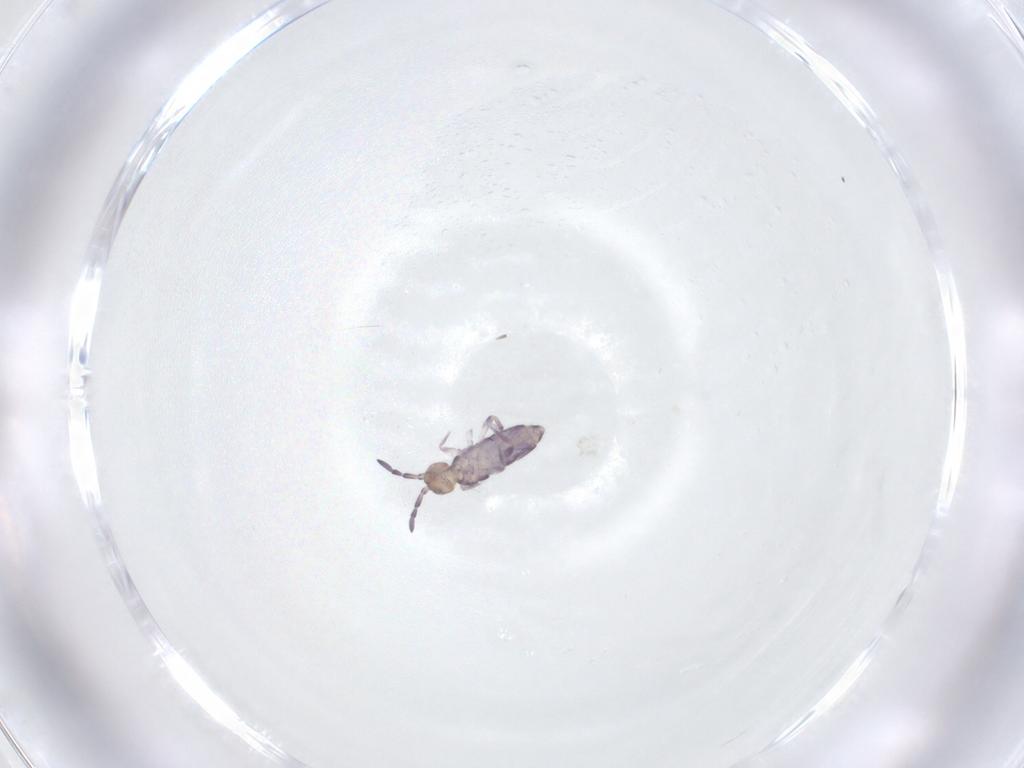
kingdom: Animalia
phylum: Arthropoda
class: Collembola
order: Entomobryomorpha
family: Entomobryidae
